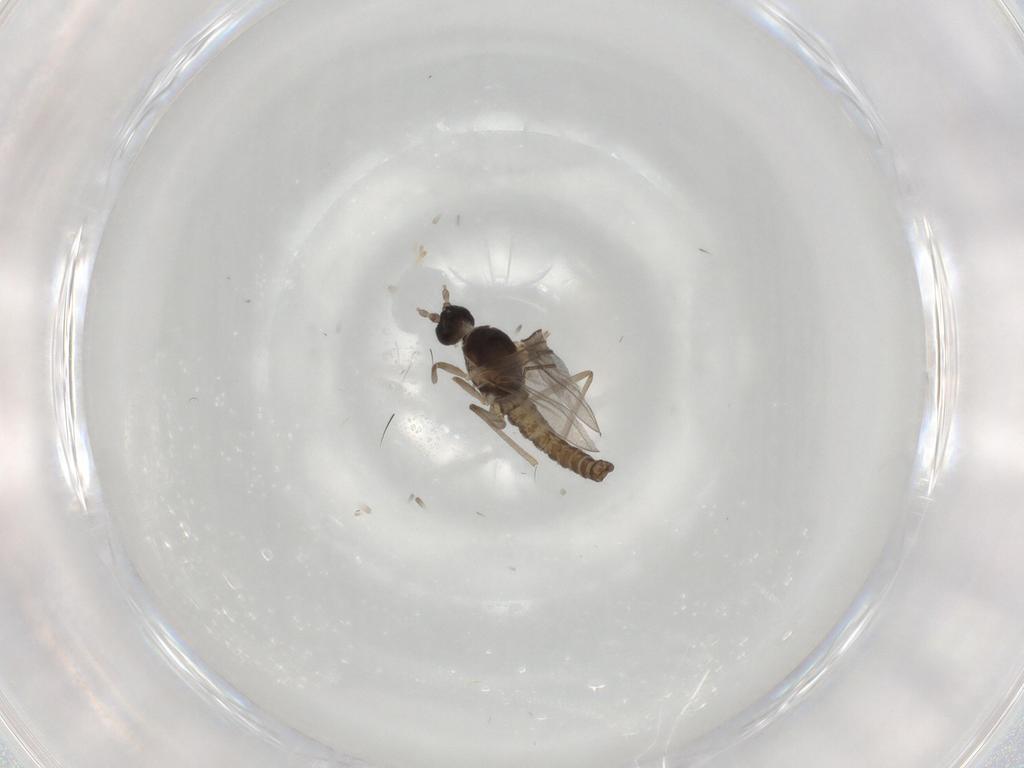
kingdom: Animalia
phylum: Arthropoda
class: Insecta
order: Diptera
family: Cecidomyiidae
